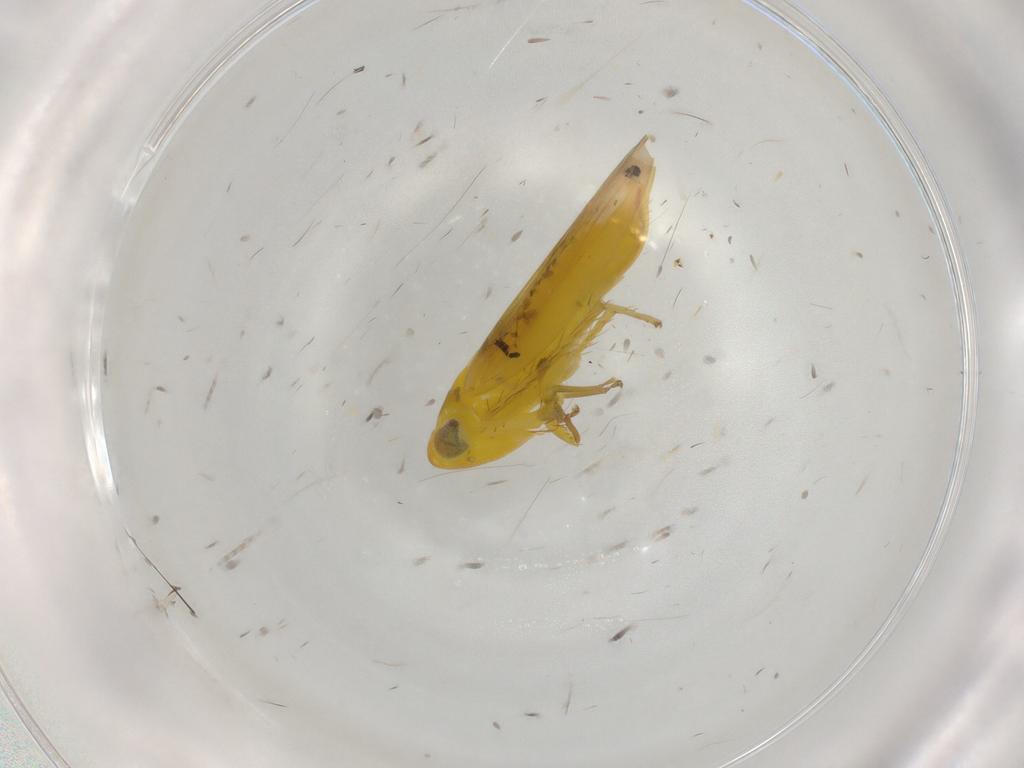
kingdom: Animalia
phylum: Arthropoda
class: Insecta
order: Hemiptera
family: Cicadellidae
